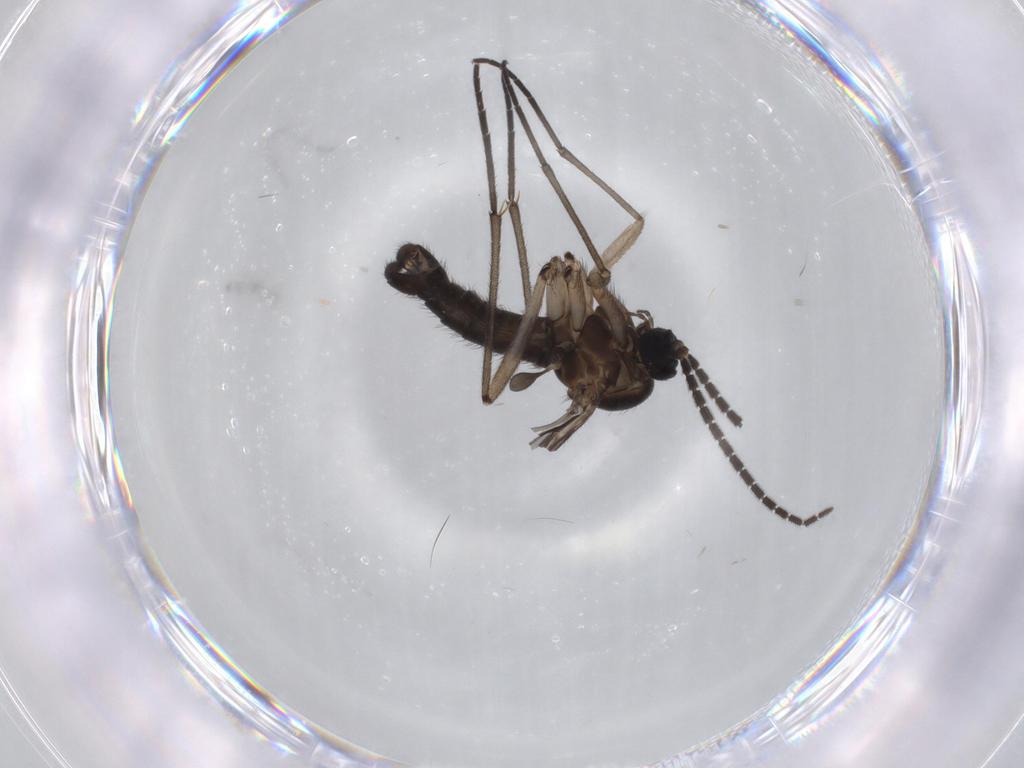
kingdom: Animalia
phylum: Arthropoda
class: Insecta
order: Diptera
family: Sciaridae
